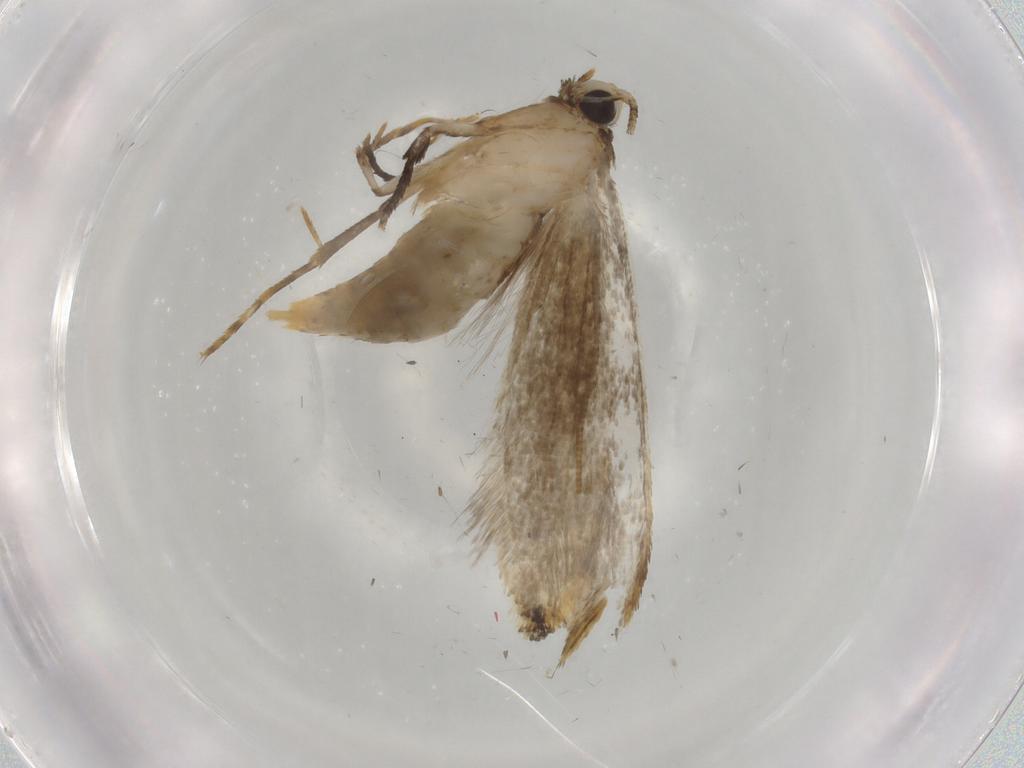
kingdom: Animalia
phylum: Arthropoda
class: Insecta
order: Lepidoptera
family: Tineidae
